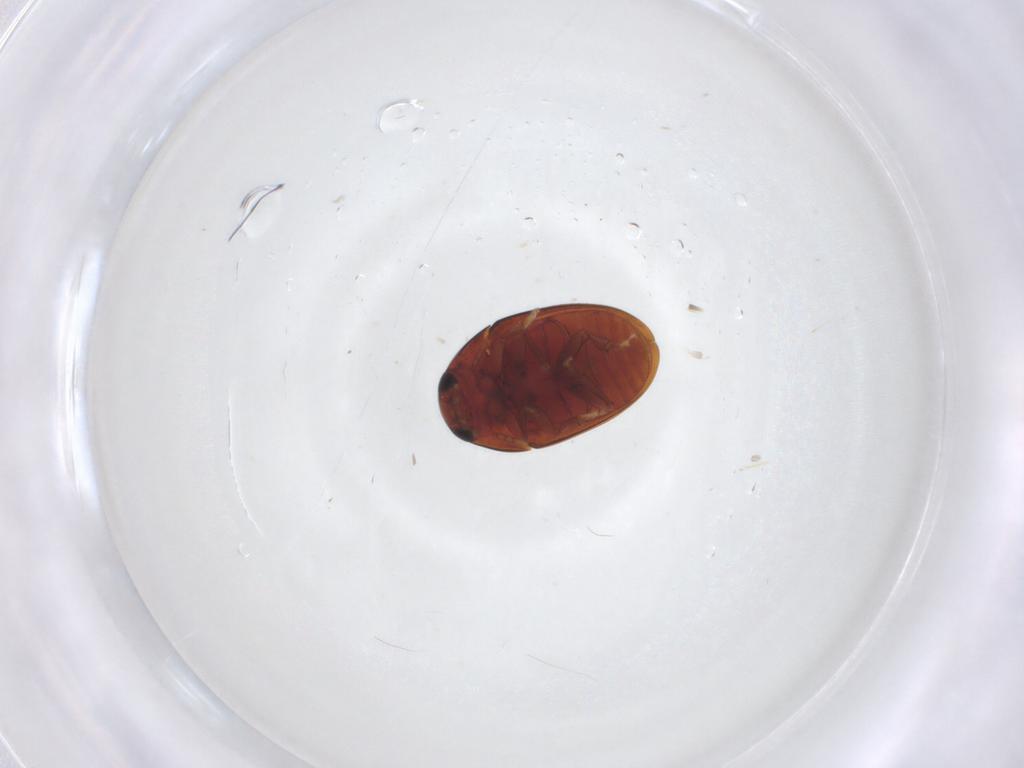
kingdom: Animalia
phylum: Arthropoda
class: Insecta
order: Coleoptera
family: Phalacridae
